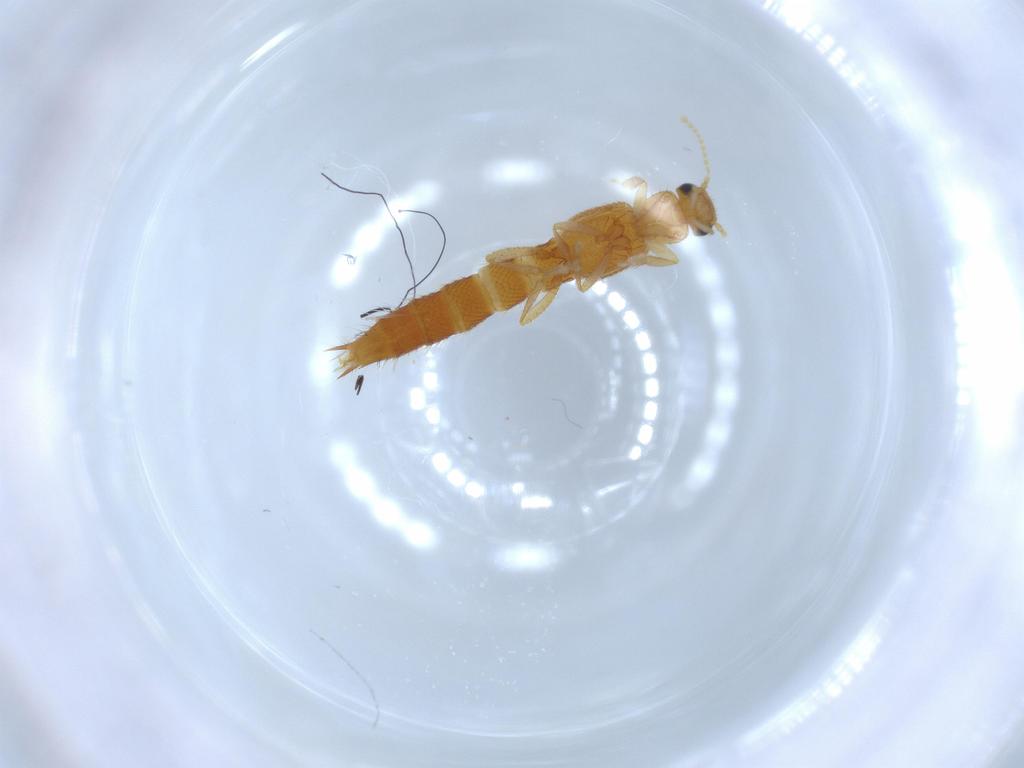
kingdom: Animalia
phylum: Arthropoda
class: Insecta
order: Coleoptera
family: Staphylinidae
